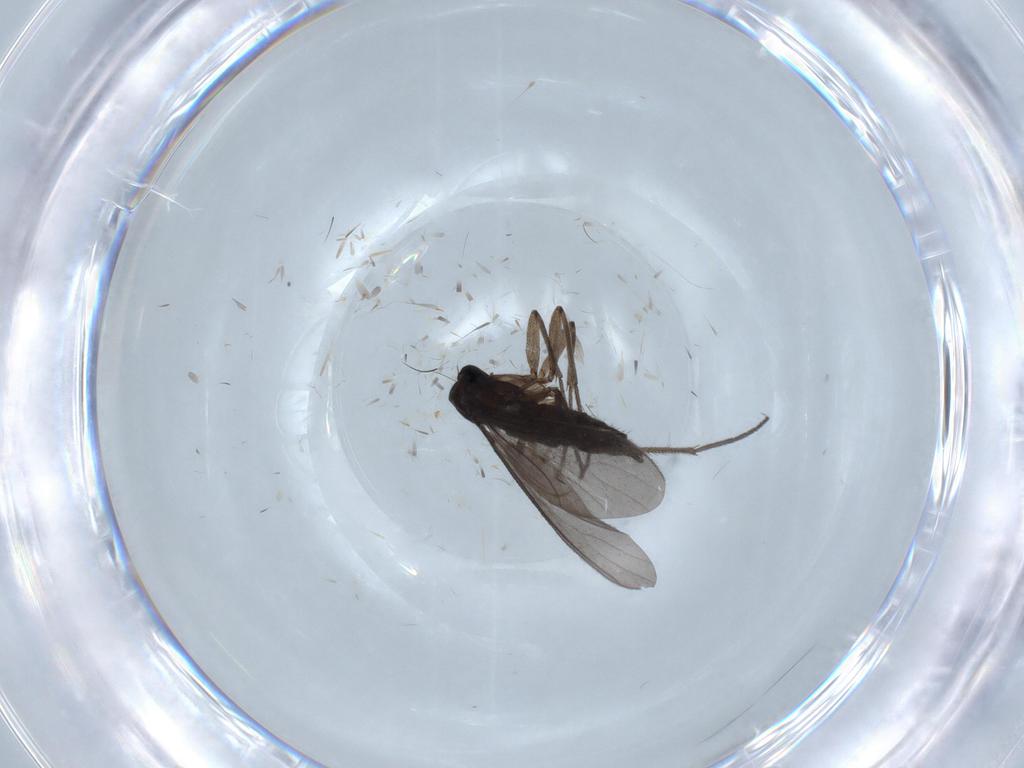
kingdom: Animalia
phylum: Arthropoda
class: Insecta
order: Diptera
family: Sciaridae
